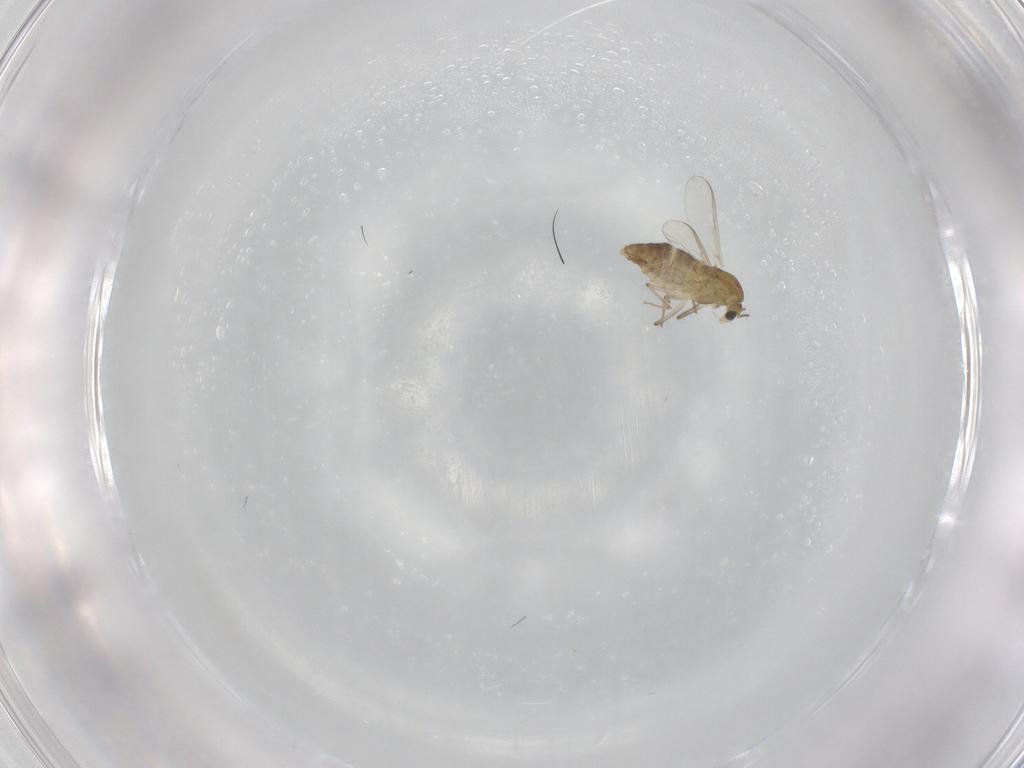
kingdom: Animalia
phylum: Arthropoda
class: Insecta
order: Diptera
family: Chironomidae
